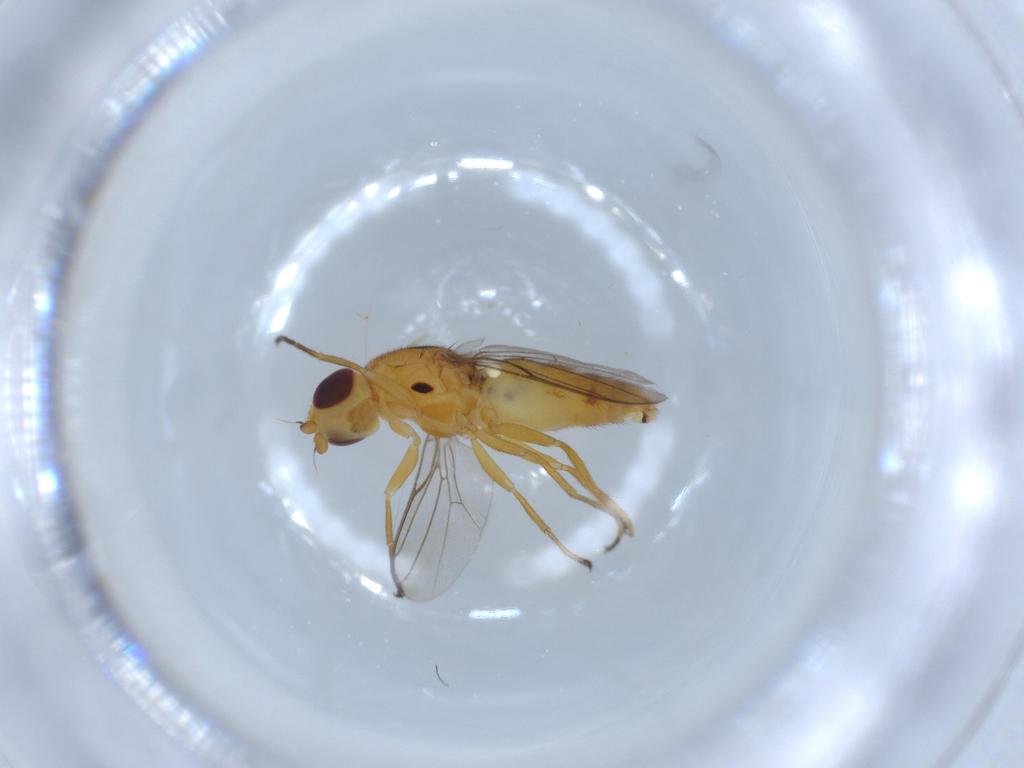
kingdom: Animalia
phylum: Arthropoda
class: Insecta
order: Diptera
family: Chloropidae
